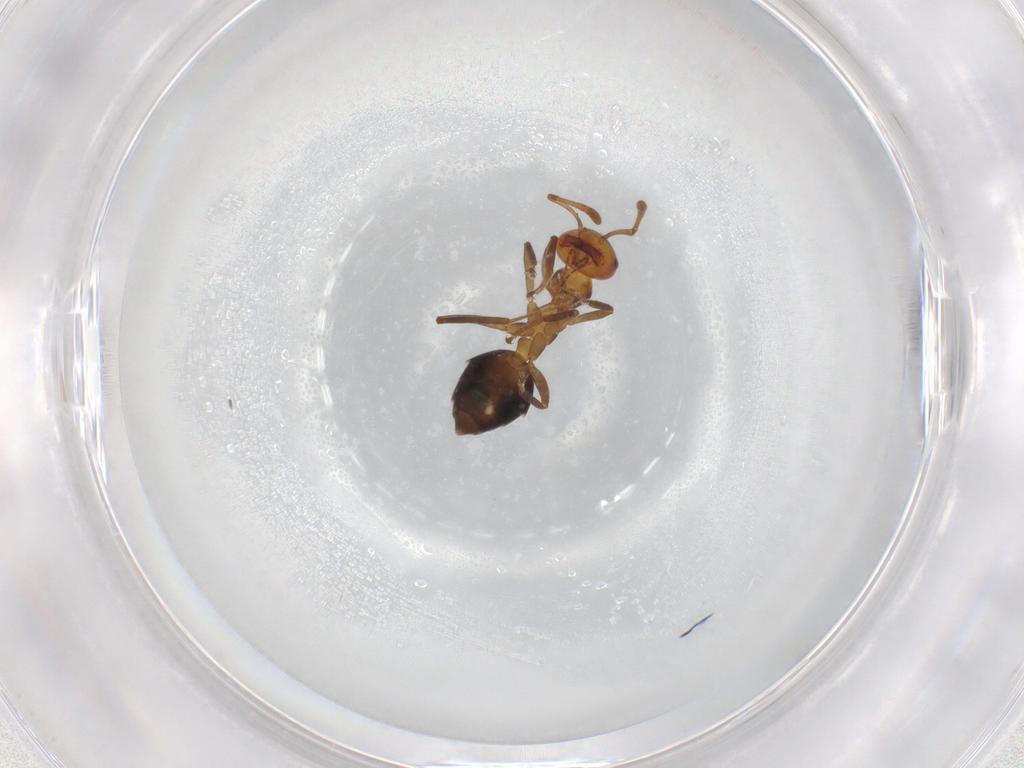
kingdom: Animalia
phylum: Arthropoda
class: Insecta
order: Hymenoptera
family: Formicidae
